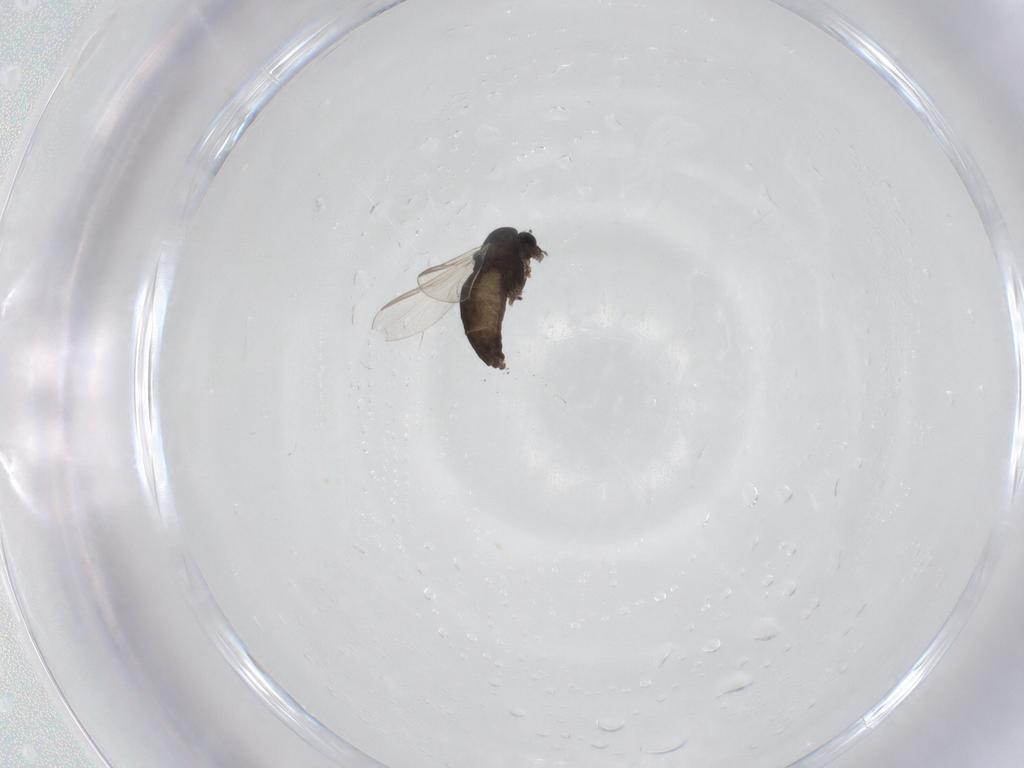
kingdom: Animalia
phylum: Arthropoda
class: Insecta
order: Diptera
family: Chironomidae
